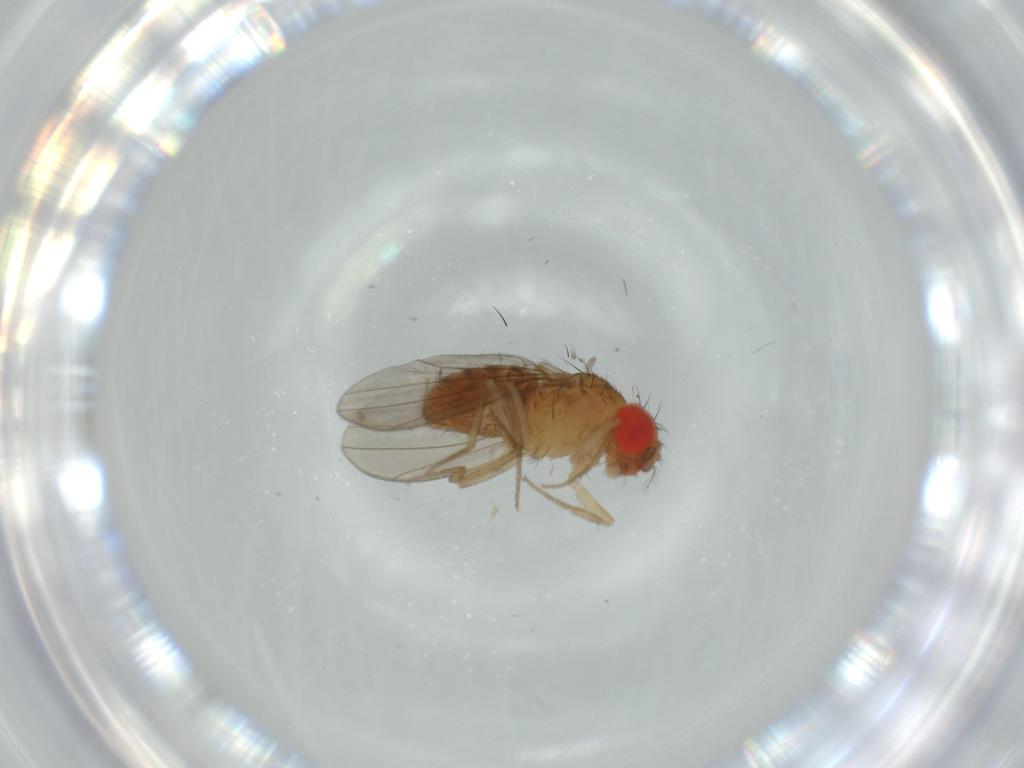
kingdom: Animalia
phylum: Arthropoda
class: Insecta
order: Diptera
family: Drosophilidae
